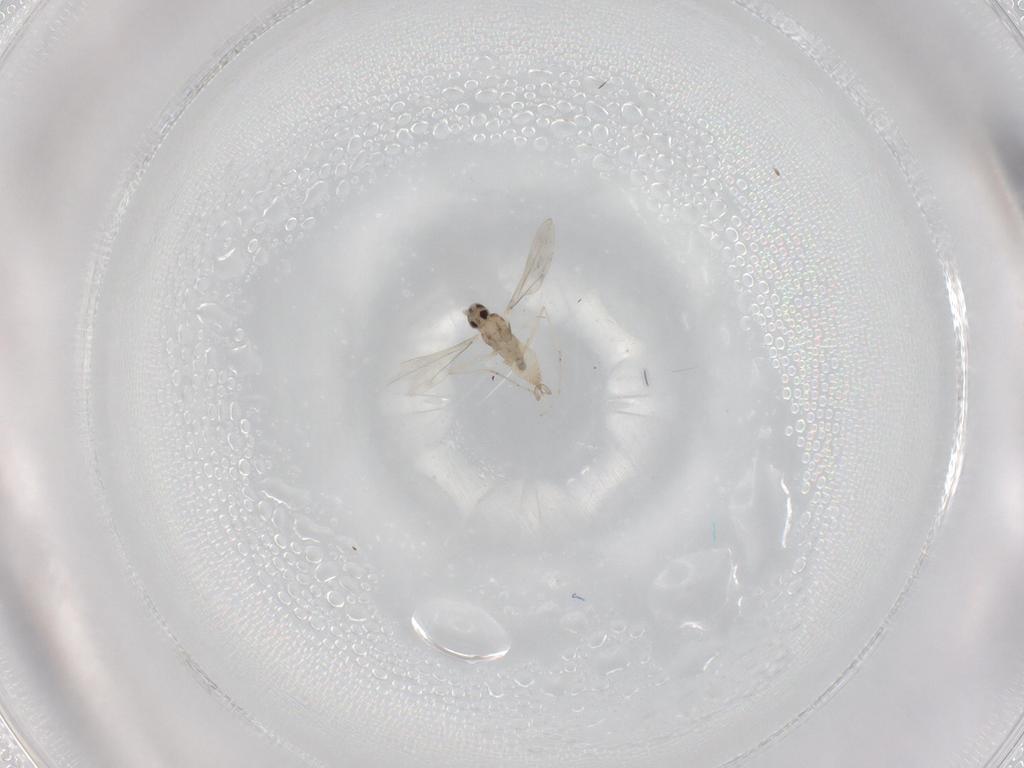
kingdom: Animalia
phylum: Arthropoda
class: Insecta
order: Diptera
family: Cecidomyiidae
